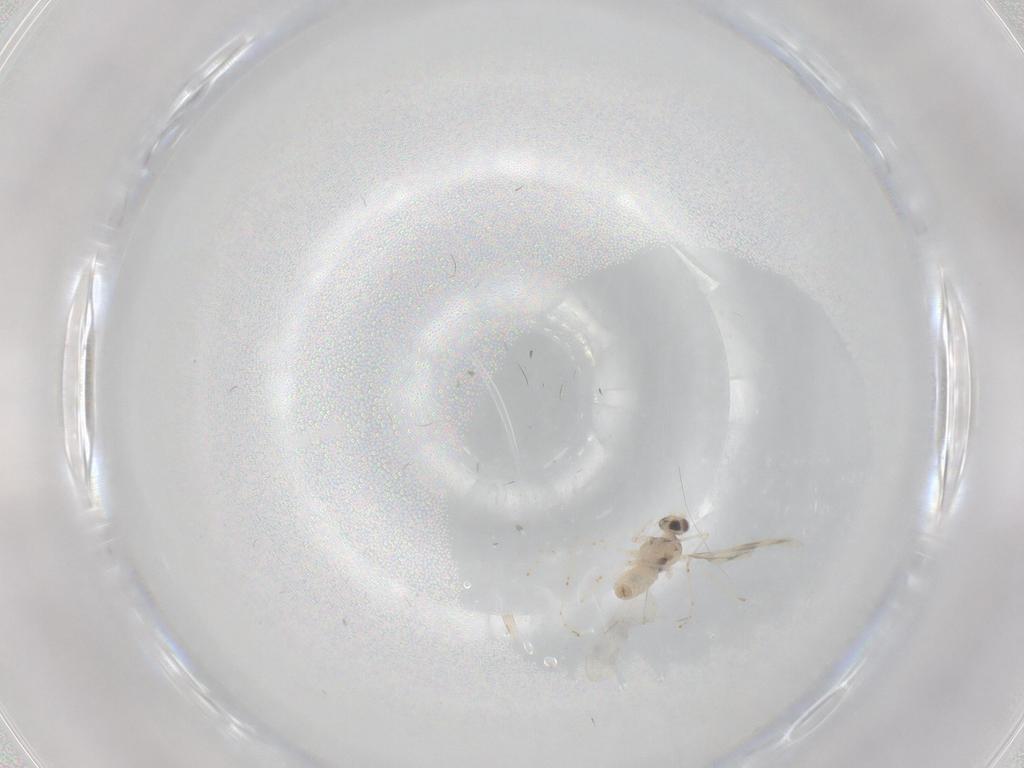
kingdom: Animalia
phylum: Arthropoda
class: Insecta
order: Diptera
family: Cecidomyiidae
